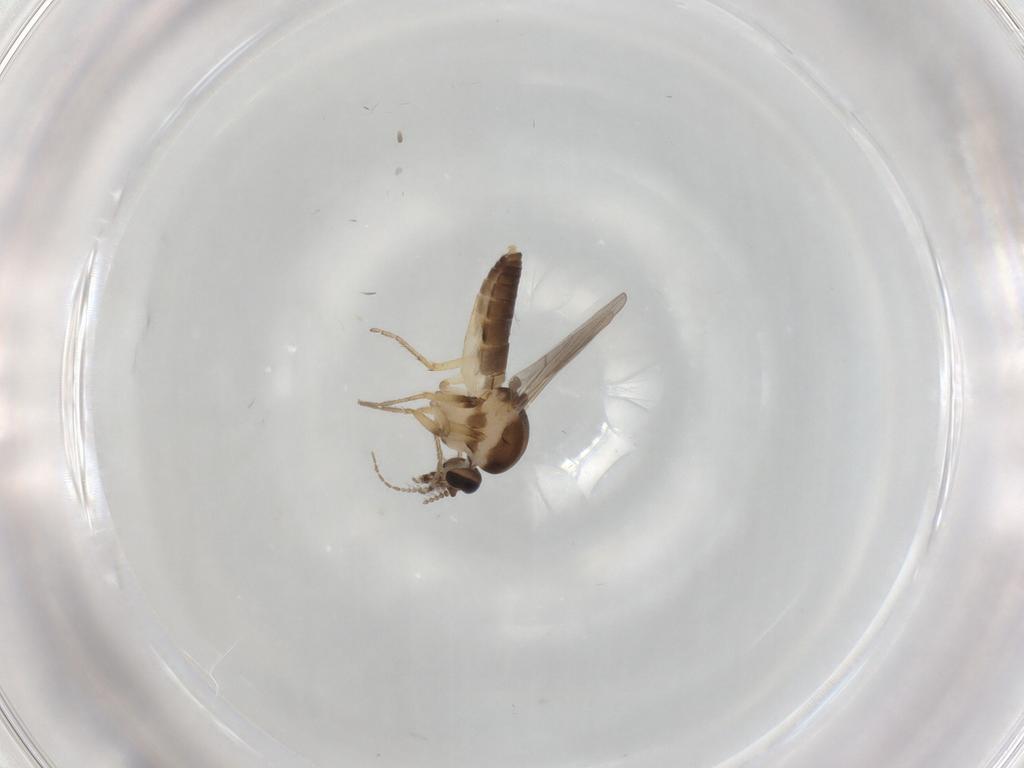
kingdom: Animalia
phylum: Arthropoda
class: Insecta
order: Diptera
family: Ceratopogonidae
